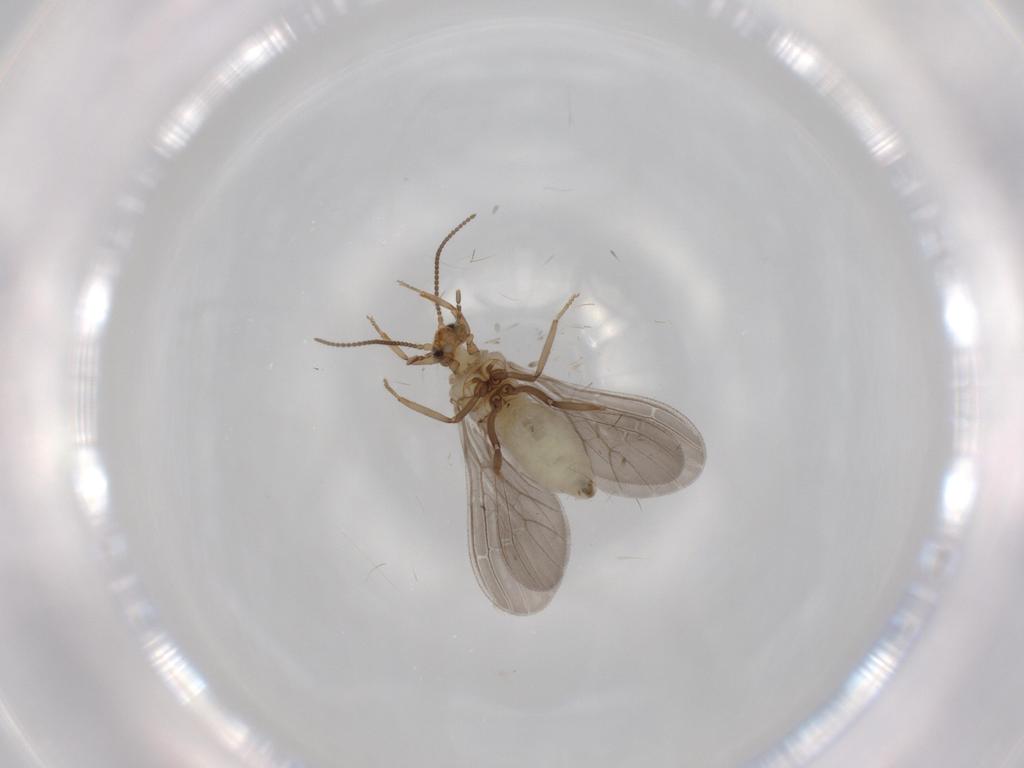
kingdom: Animalia
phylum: Arthropoda
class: Insecta
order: Neuroptera
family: Coniopterygidae
